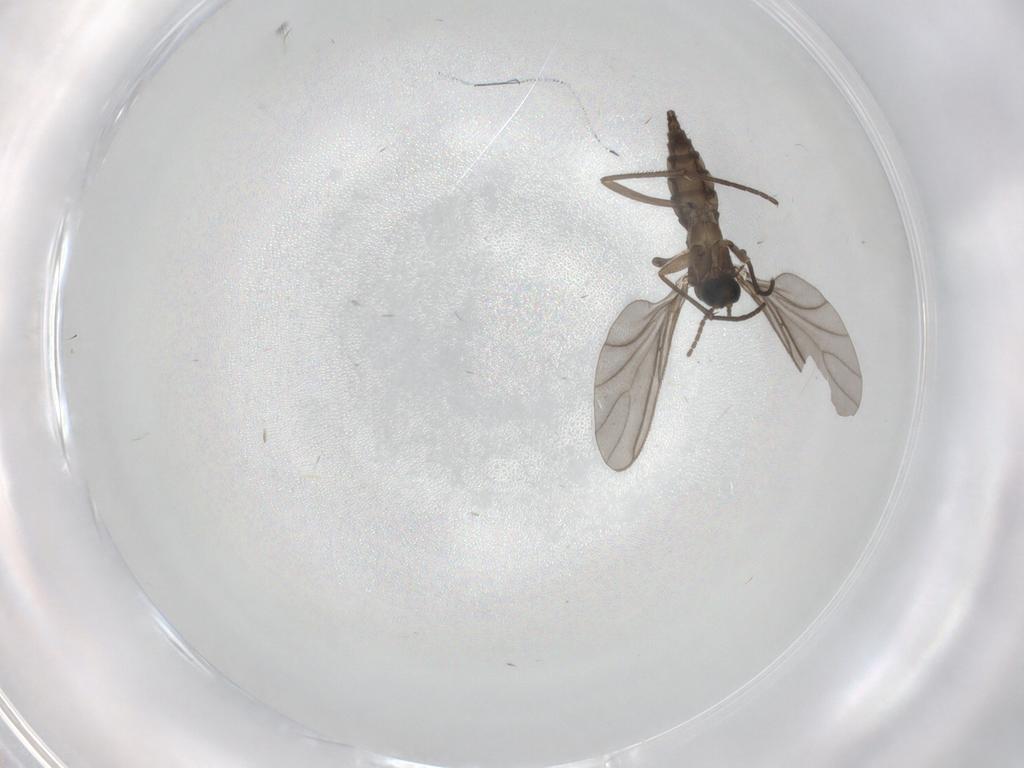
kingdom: Animalia
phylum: Arthropoda
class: Insecta
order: Diptera
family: Sciaridae
